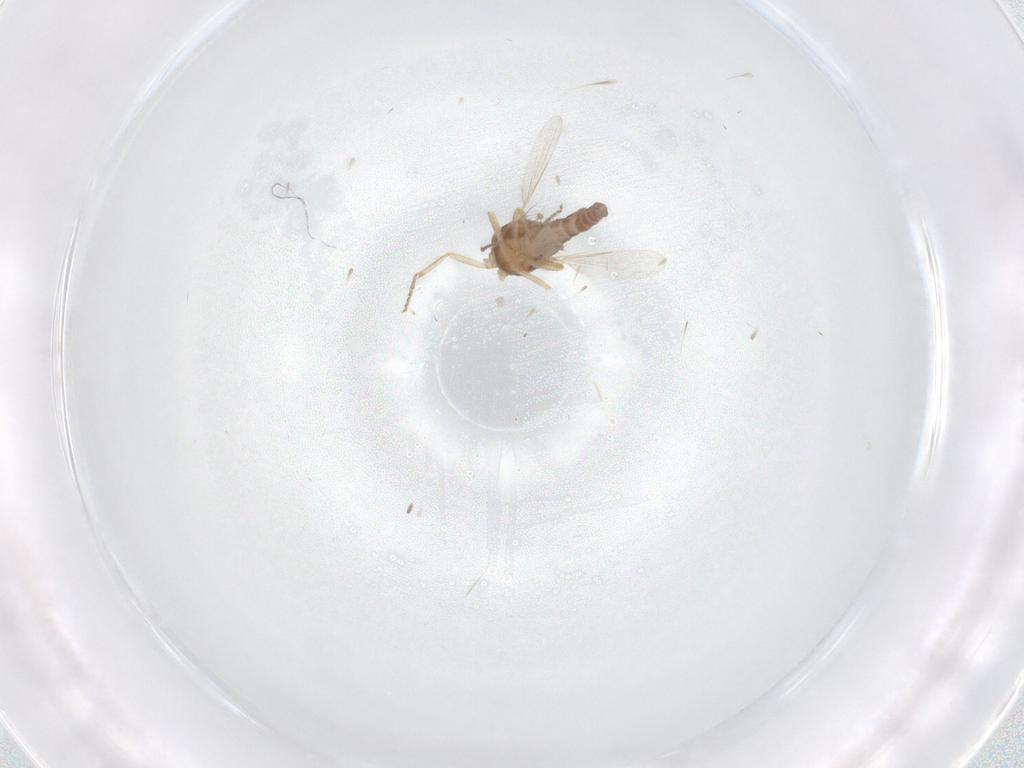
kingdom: Animalia
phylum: Arthropoda
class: Insecta
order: Diptera
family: Ceratopogonidae
